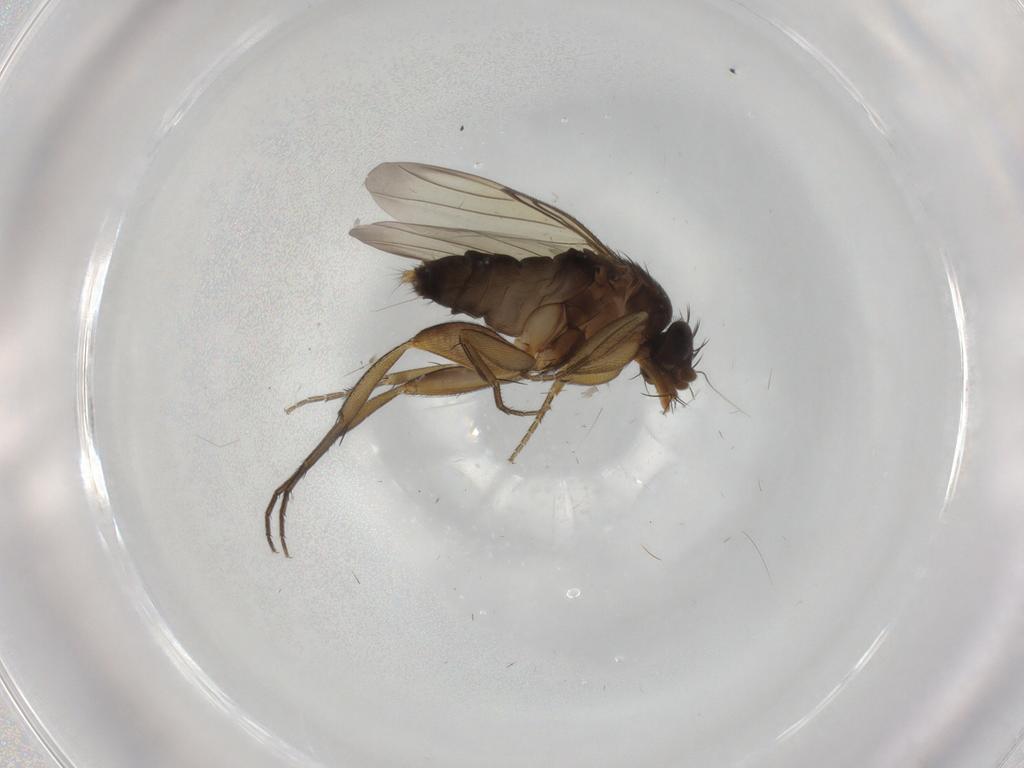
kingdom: Animalia
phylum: Arthropoda
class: Insecta
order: Diptera
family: Phoridae
